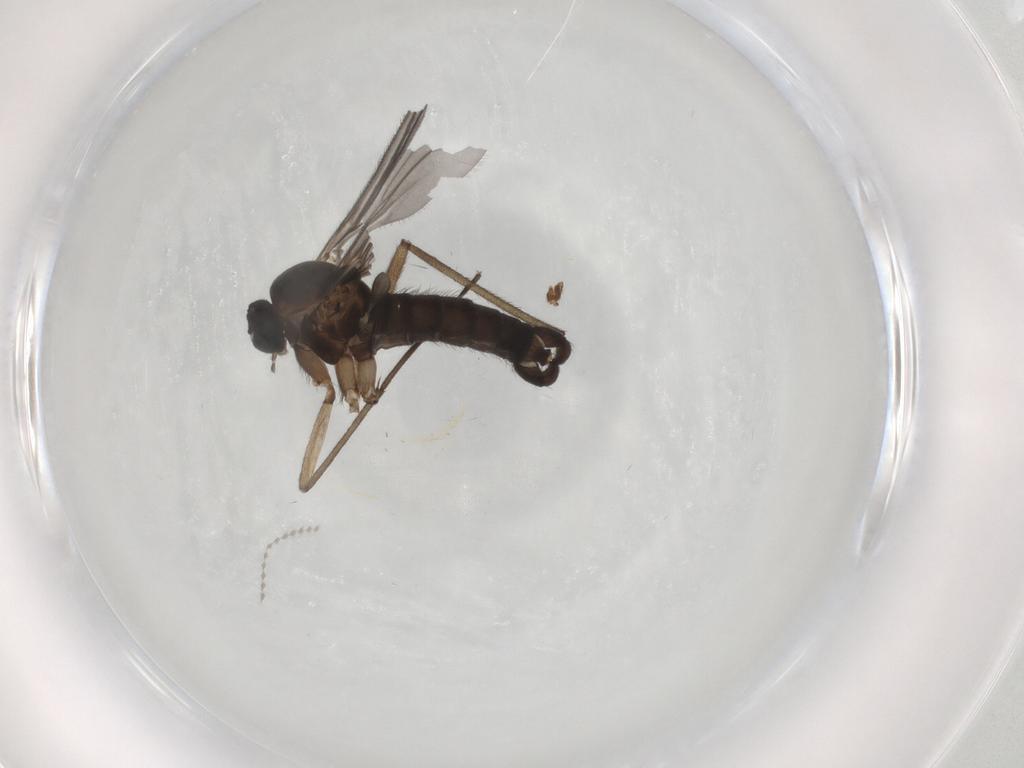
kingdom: Animalia
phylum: Arthropoda
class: Insecta
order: Diptera
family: Sciaridae
